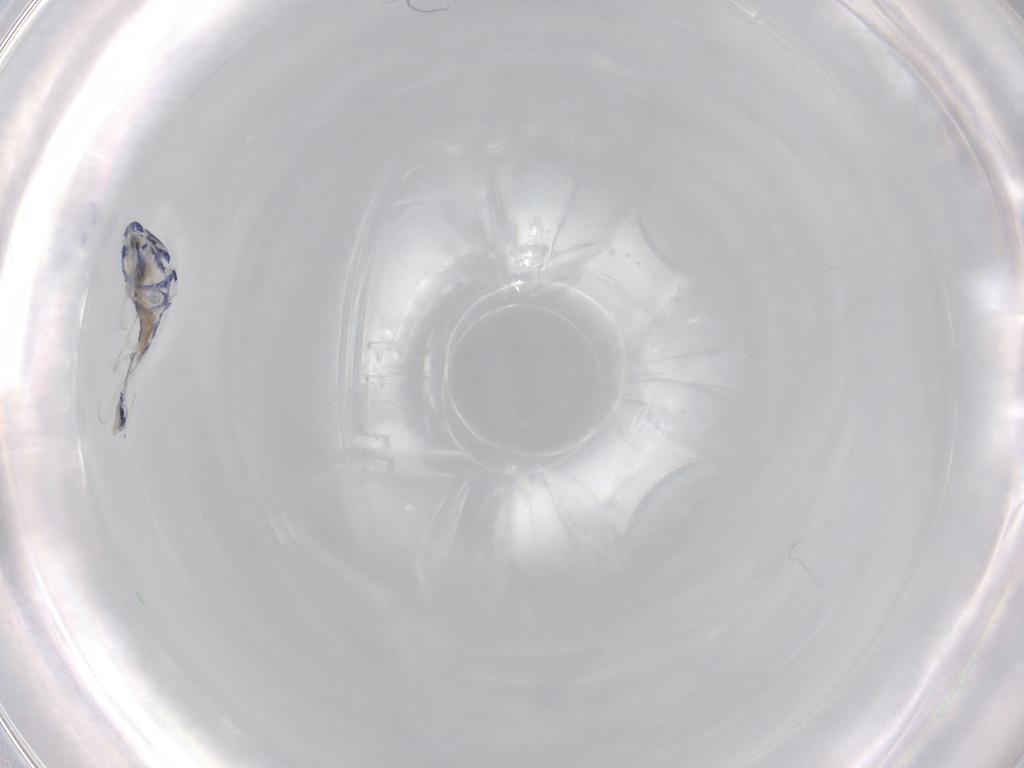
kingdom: Animalia
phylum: Arthropoda
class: Collembola
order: Entomobryomorpha
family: Entomobryidae
